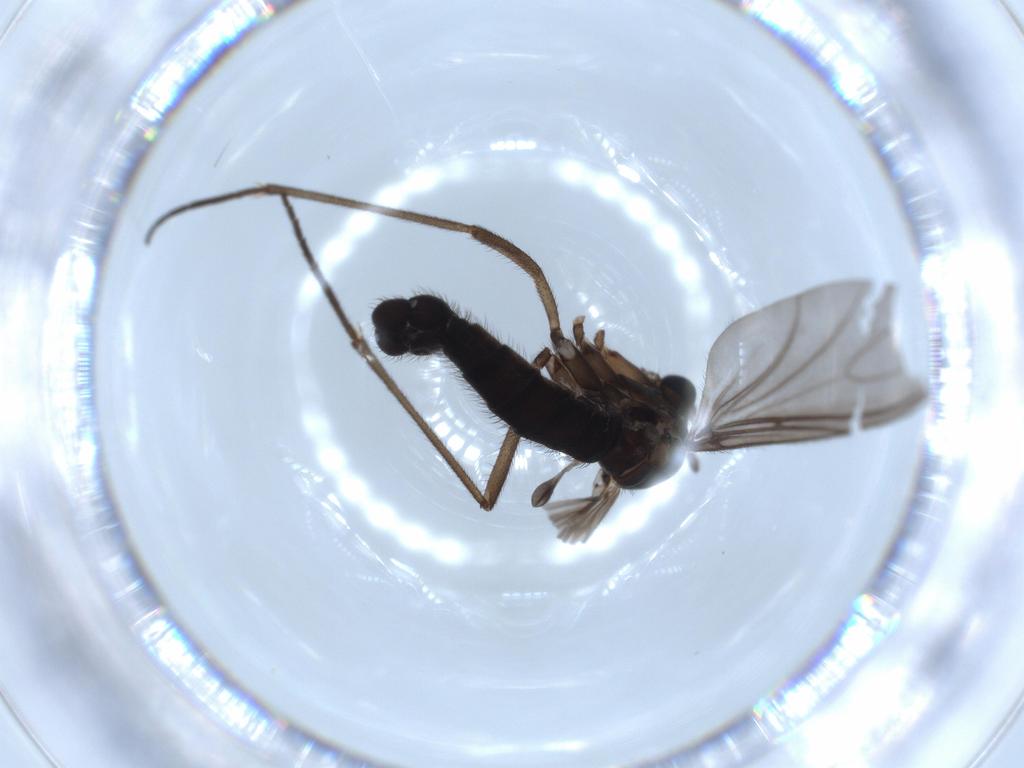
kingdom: Animalia
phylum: Arthropoda
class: Insecta
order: Diptera
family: Sciaridae
